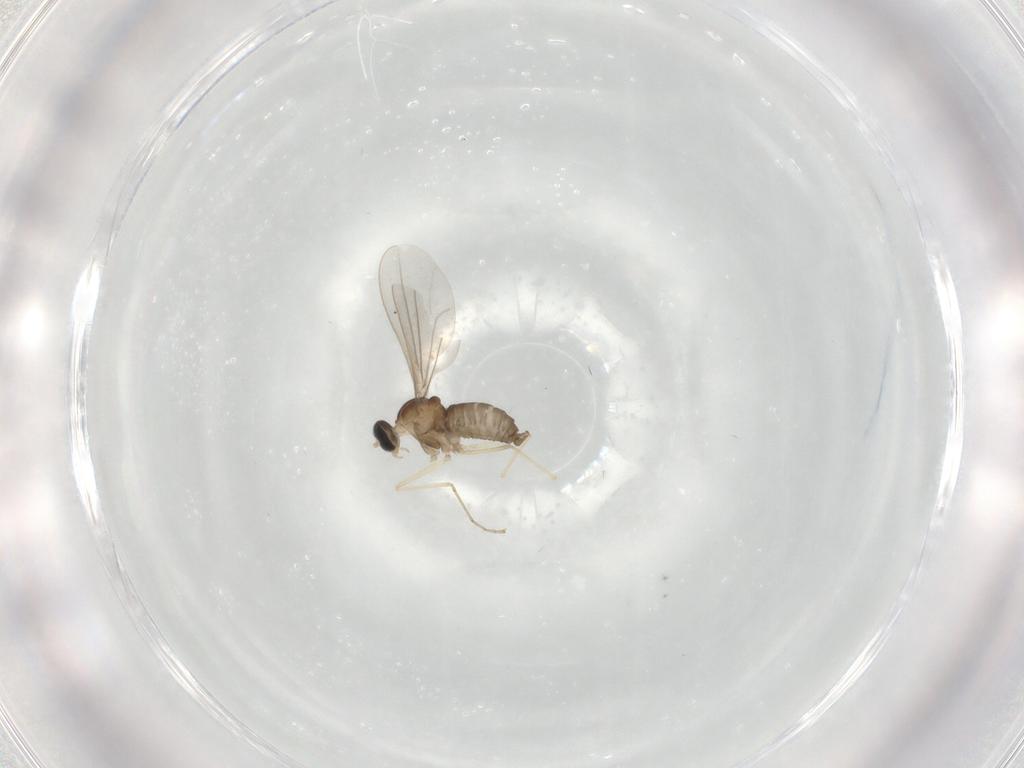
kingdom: Animalia
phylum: Arthropoda
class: Insecta
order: Diptera
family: Cecidomyiidae
